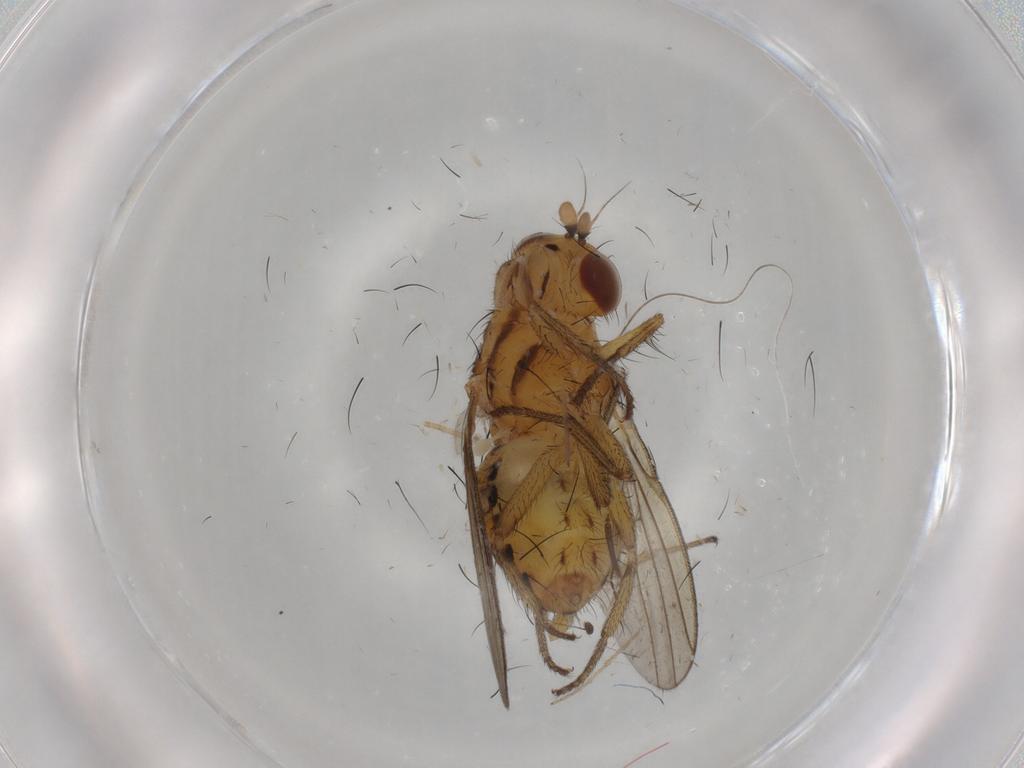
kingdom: Animalia
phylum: Arthropoda
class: Insecta
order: Diptera
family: Dolichopodidae
